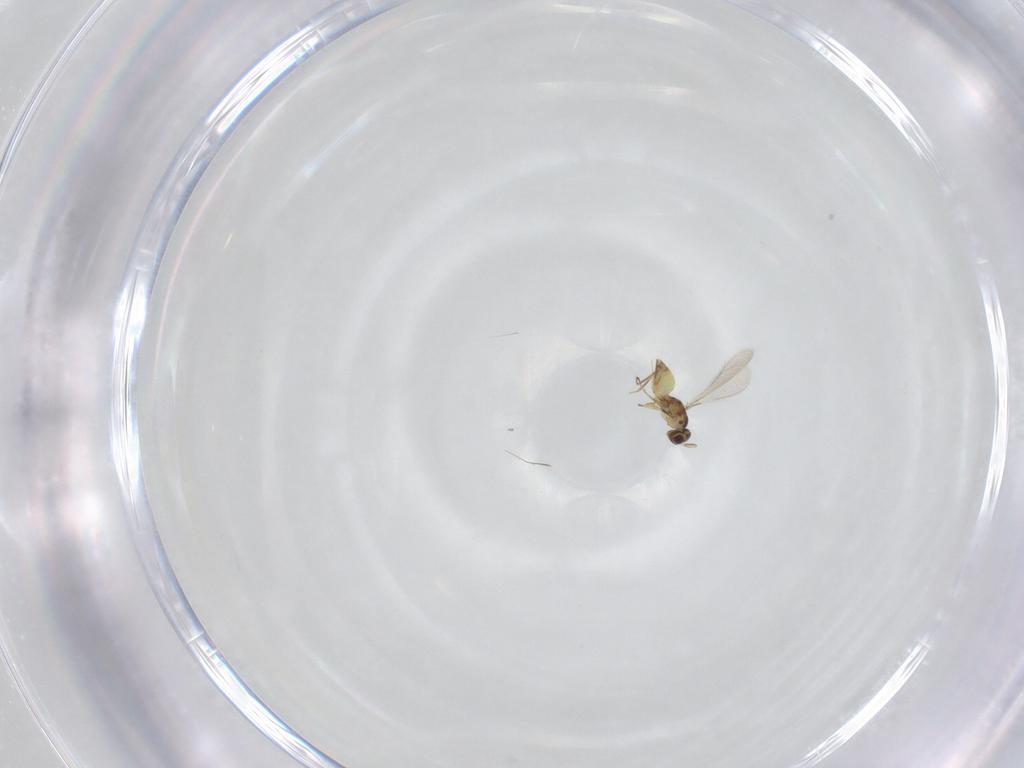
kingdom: Animalia
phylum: Arthropoda
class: Insecta
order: Hymenoptera
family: Mymaridae
